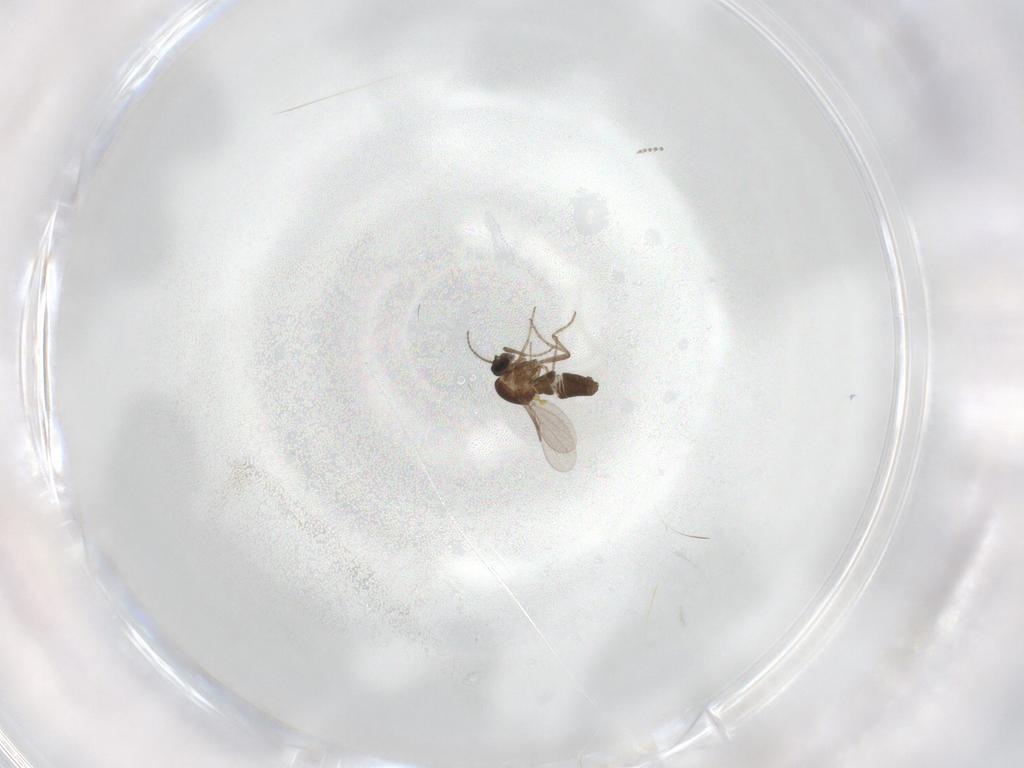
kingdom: Animalia
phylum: Arthropoda
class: Insecta
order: Diptera
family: Ceratopogonidae
